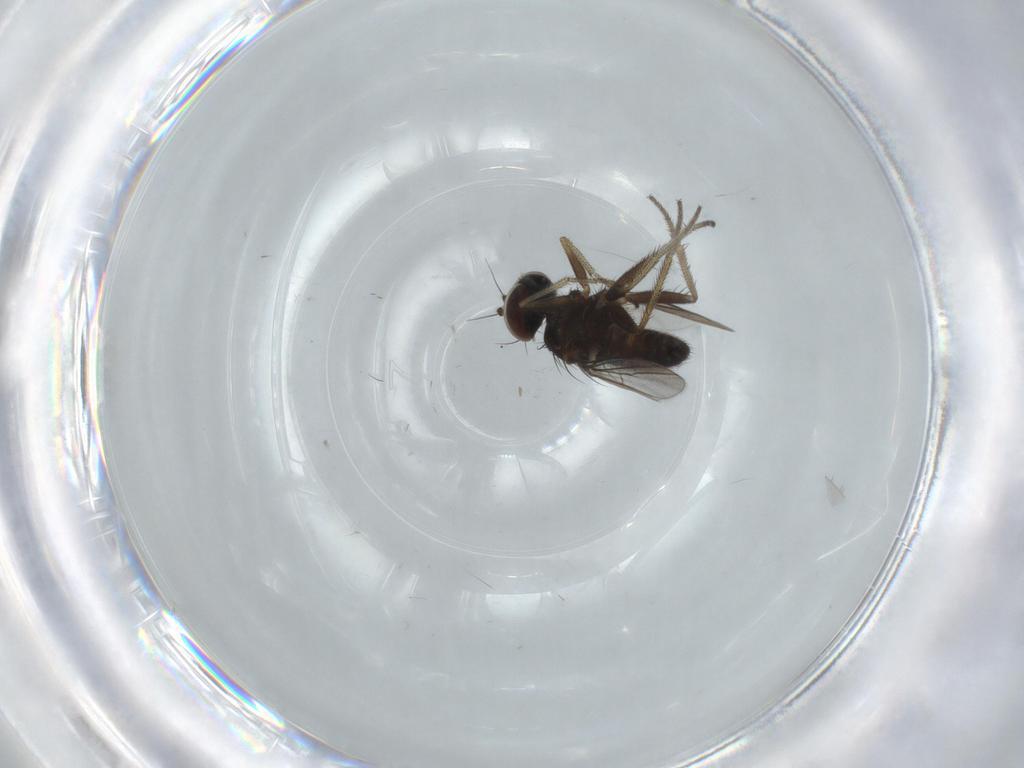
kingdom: Animalia
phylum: Arthropoda
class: Insecta
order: Diptera
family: Dolichopodidae
